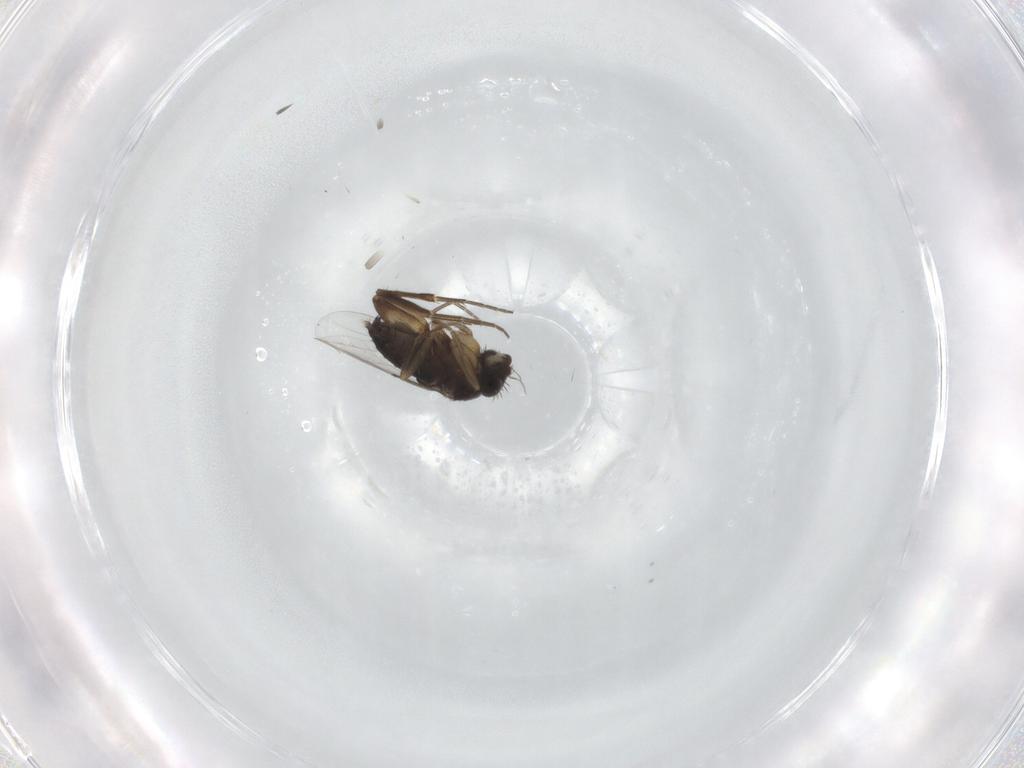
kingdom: Animalia
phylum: Arthropoda
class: Insecta
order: Diptera
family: Phoridae
